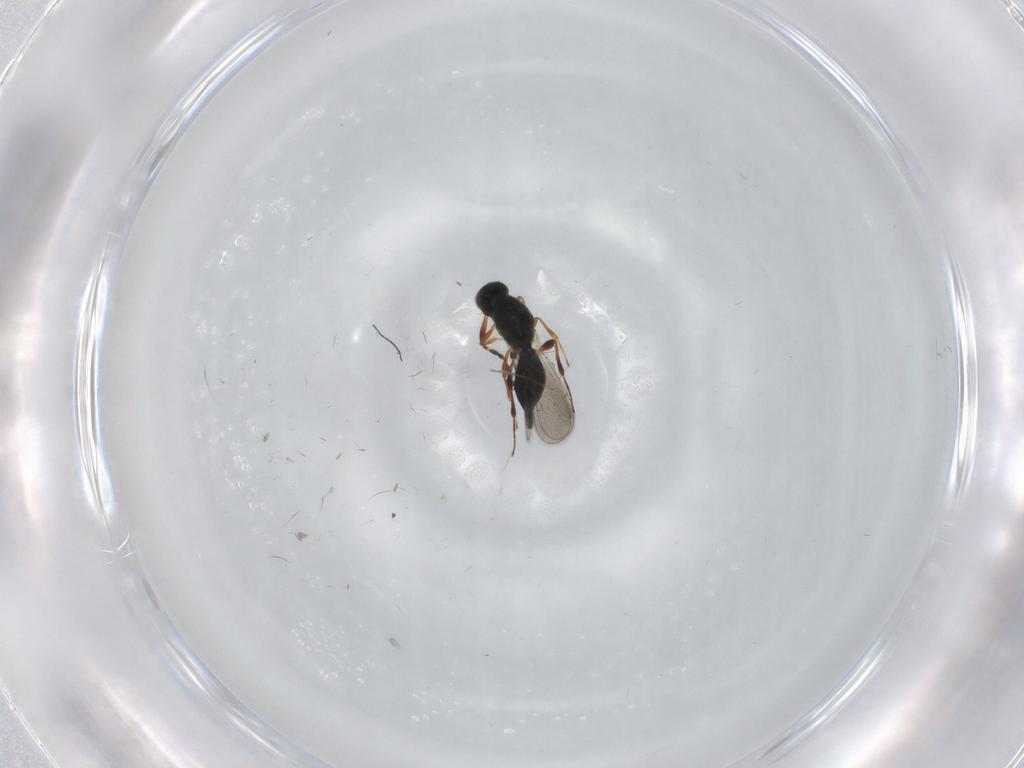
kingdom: Animalia
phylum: Arthropoda
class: Insecta
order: Hymenoptera
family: Platygastridae
